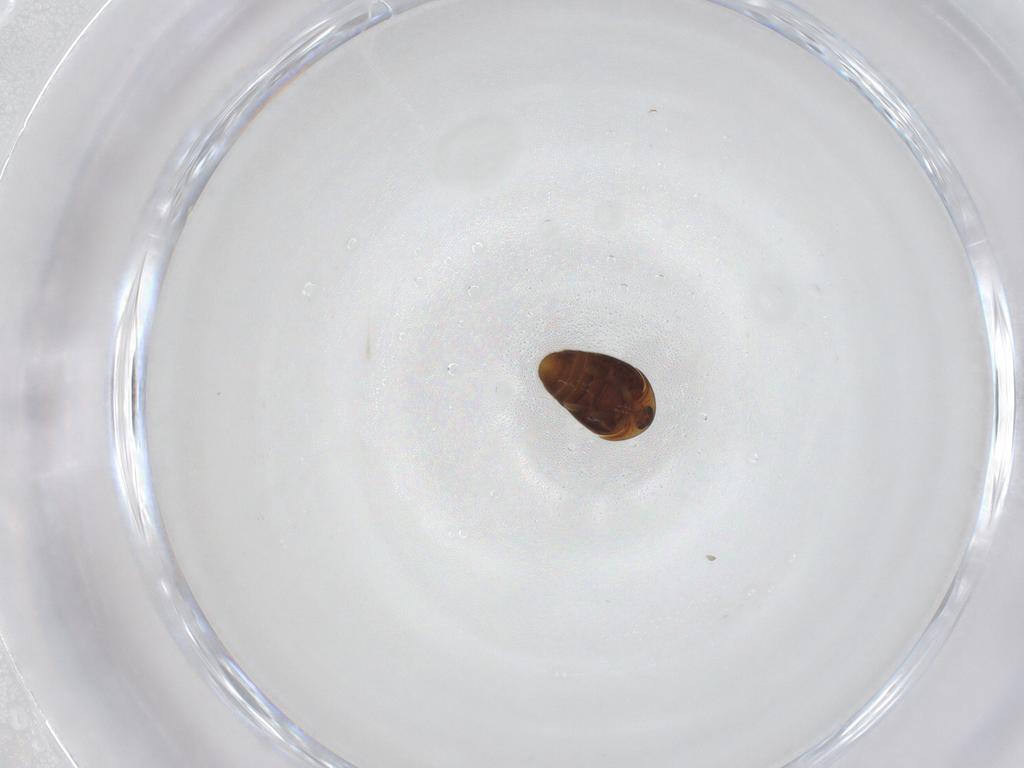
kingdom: Animalia
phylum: Arthropoda
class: Insecta
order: Coleoptera
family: Corylophidae
